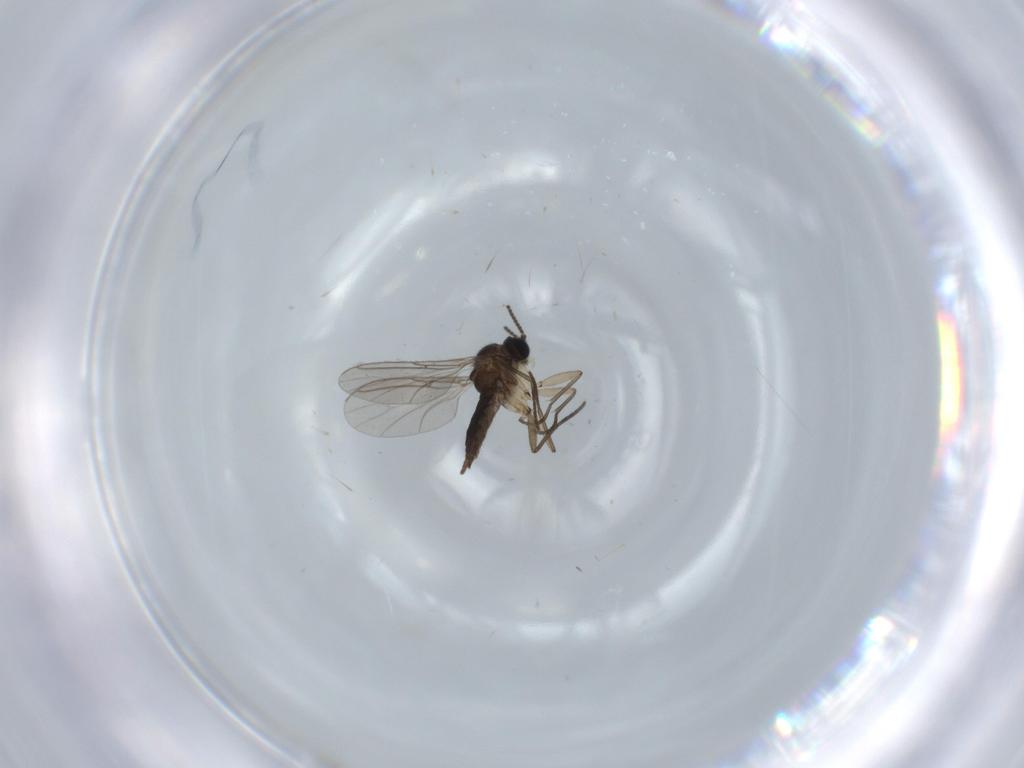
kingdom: Animalia
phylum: Arthropoda
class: Insecta
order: Diptera
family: Sciaridae
